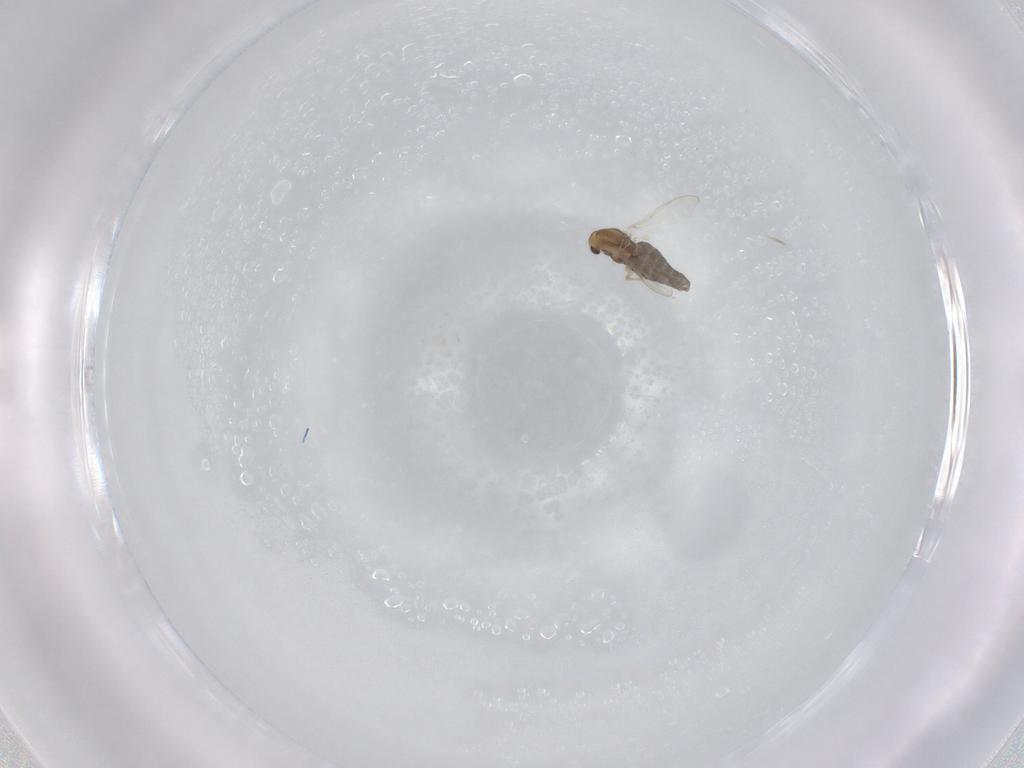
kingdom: Animalia
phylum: Arthropoda
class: Insecta
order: Diptera
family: Chironomidae
